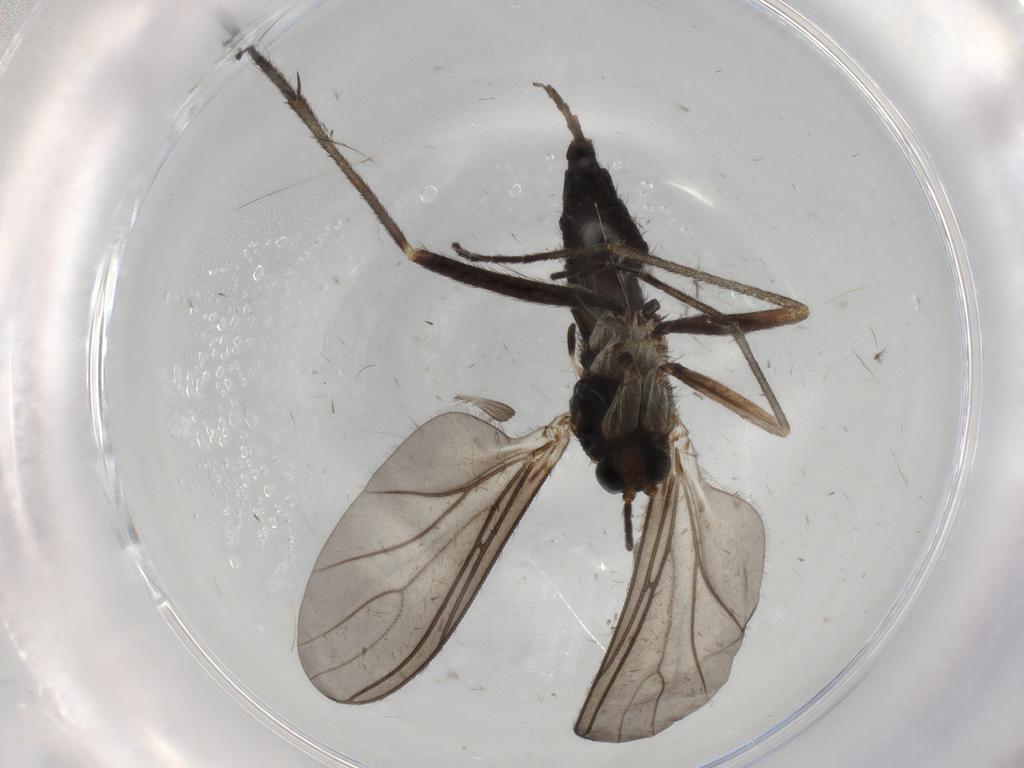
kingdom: Animalia
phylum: Arthropoda
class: Insecta
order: Diptera
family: Sciaridae
